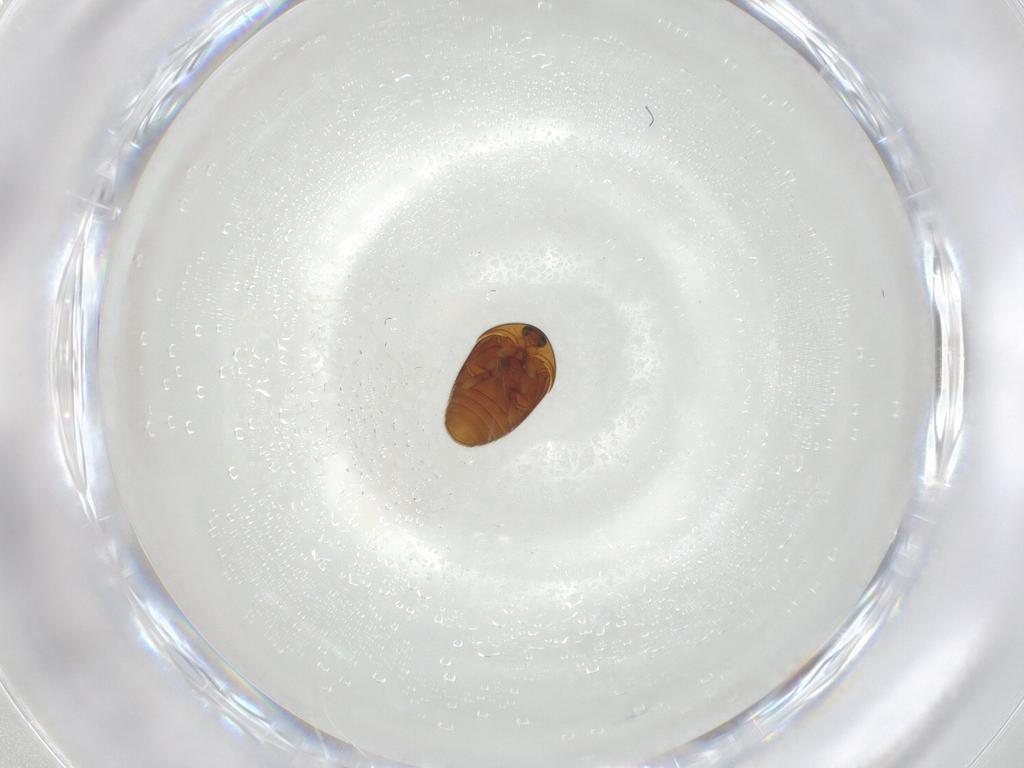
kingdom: Animalia
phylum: Arthropoda
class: Insecta
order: Coleoptera
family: Corylophidae
